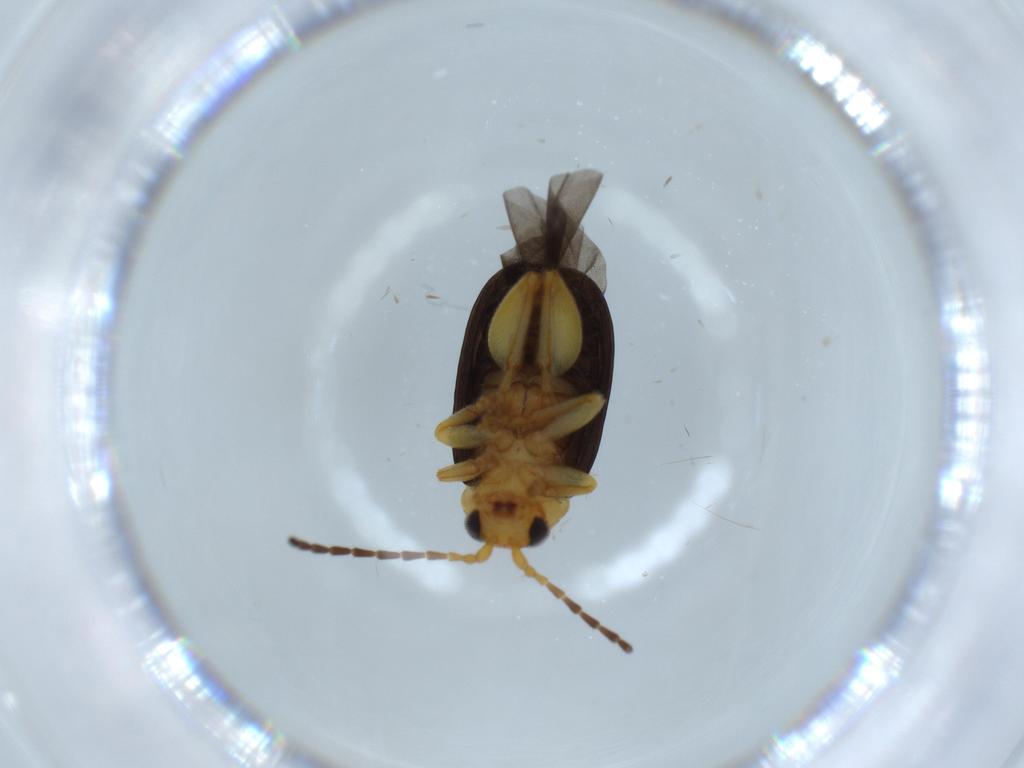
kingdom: Animalia
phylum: Arthropoda
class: Insecta
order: Coleoptera
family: Chrysomelidae
